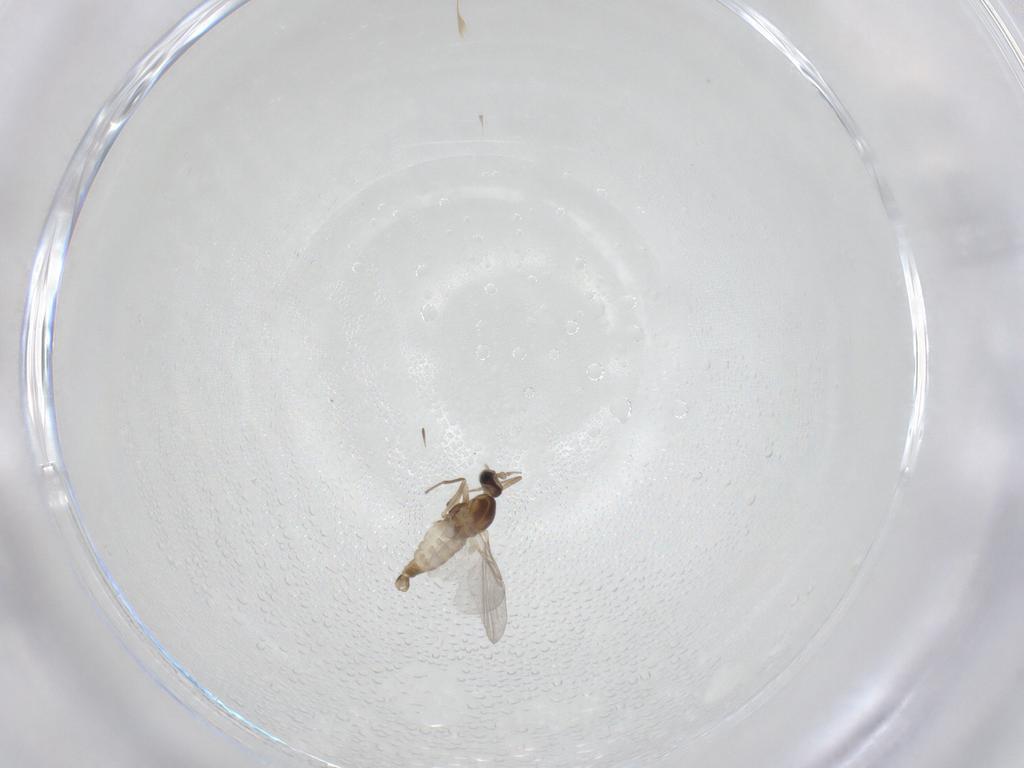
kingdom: Animalia
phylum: Arthropoda
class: Insecta
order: Diptera
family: Cecidomyiidae
